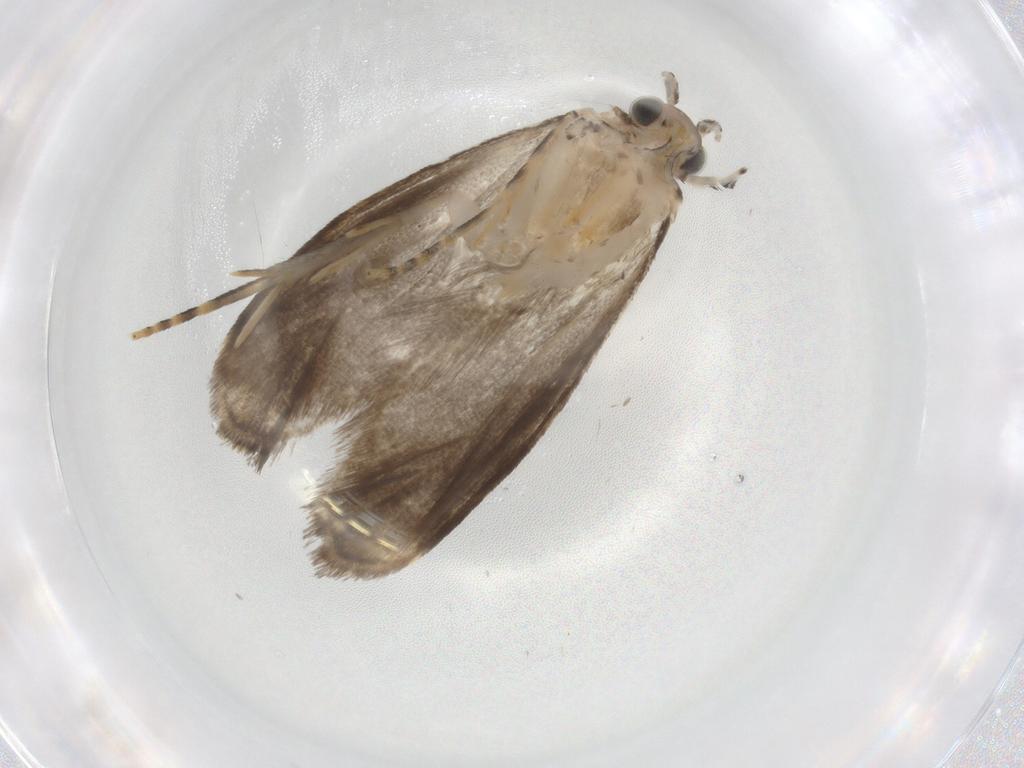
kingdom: Animalia
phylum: Arthropoda
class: Insecta
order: Lepidoptera
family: Tineidae
